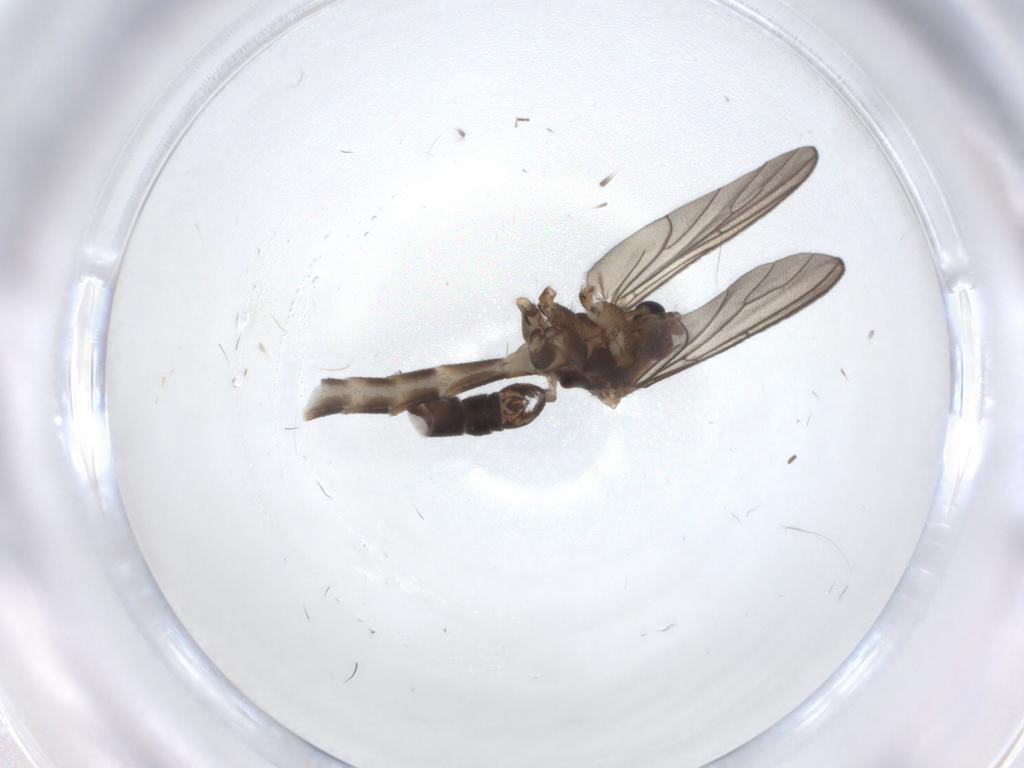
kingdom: Animalia
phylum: Arthropoda
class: Insecta
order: Diptera
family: Mycetophilidae
